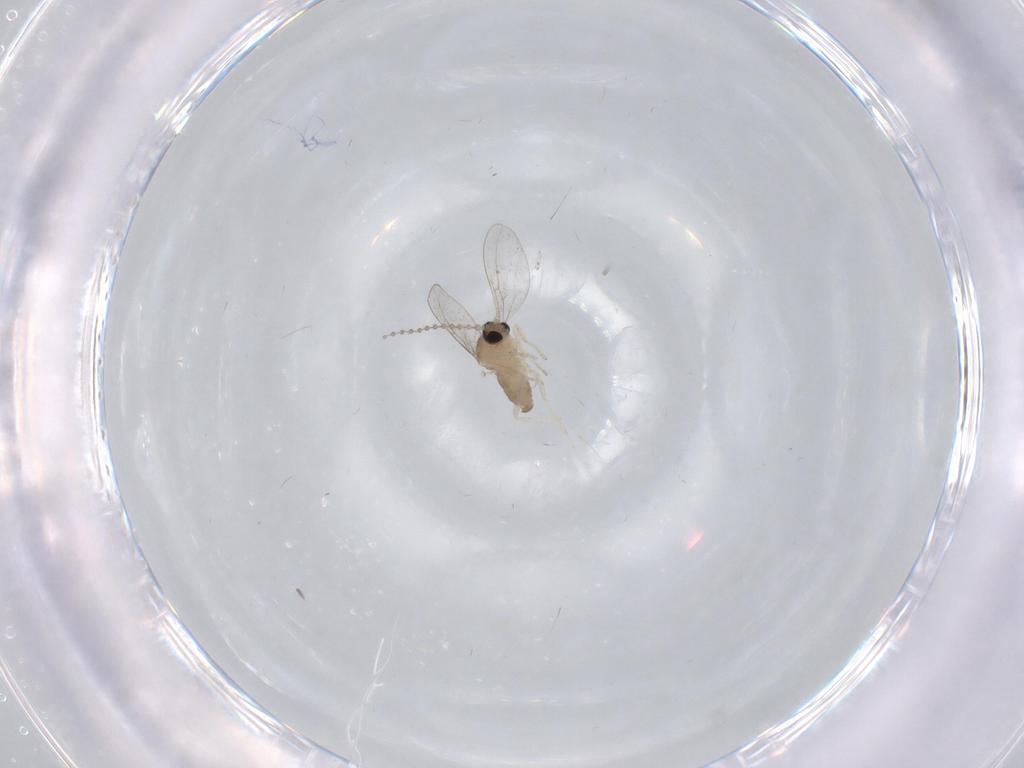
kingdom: Animalia
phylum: Arthropoda
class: Insecta
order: Diptera
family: Cecidomyiidae
